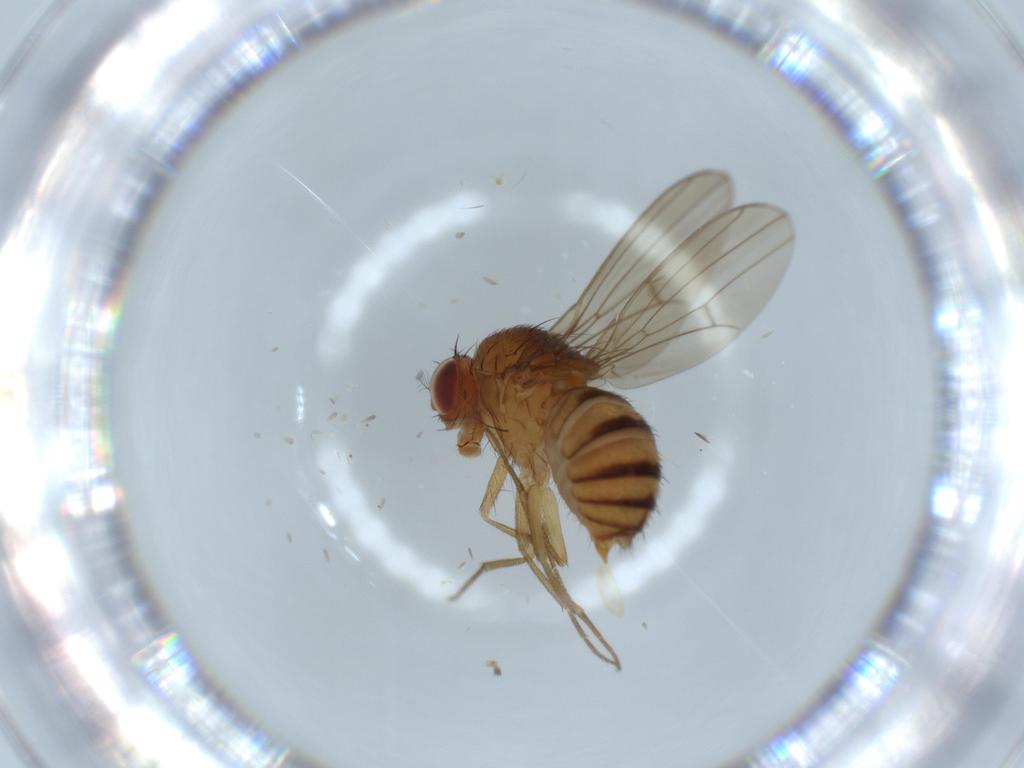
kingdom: Animalia
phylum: Arthropoda
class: Insecta
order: Diptera
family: Drosophilidae
